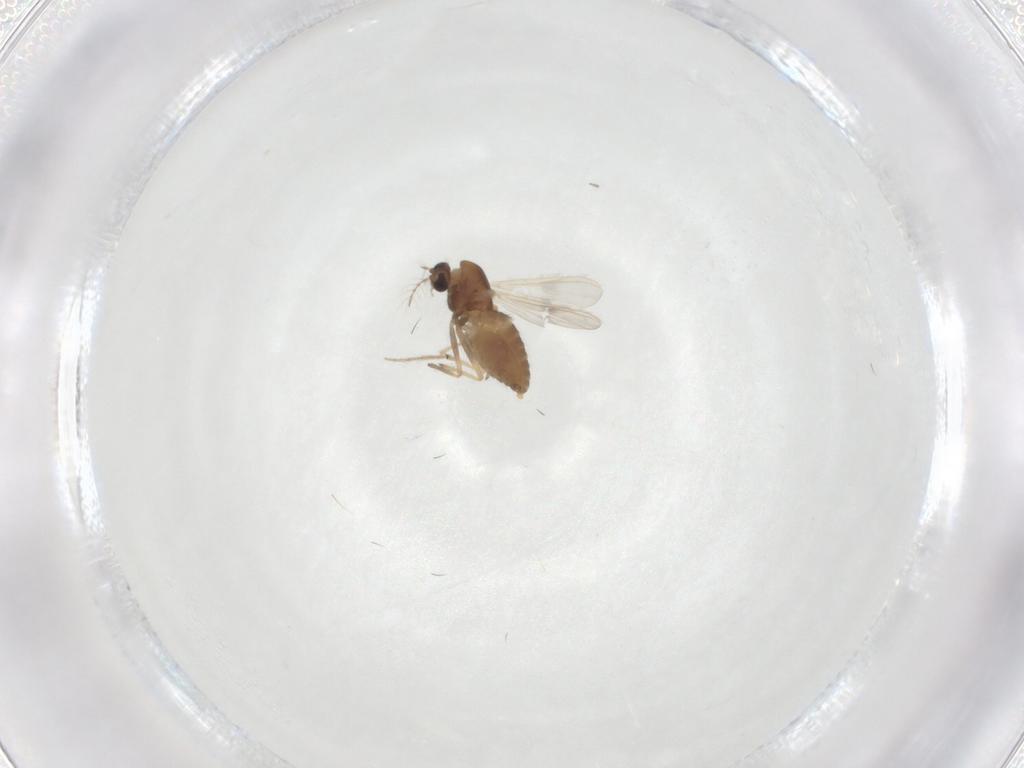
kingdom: Animalia
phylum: Arthropoda
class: Insecta
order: Diptera
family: Chironomidae
